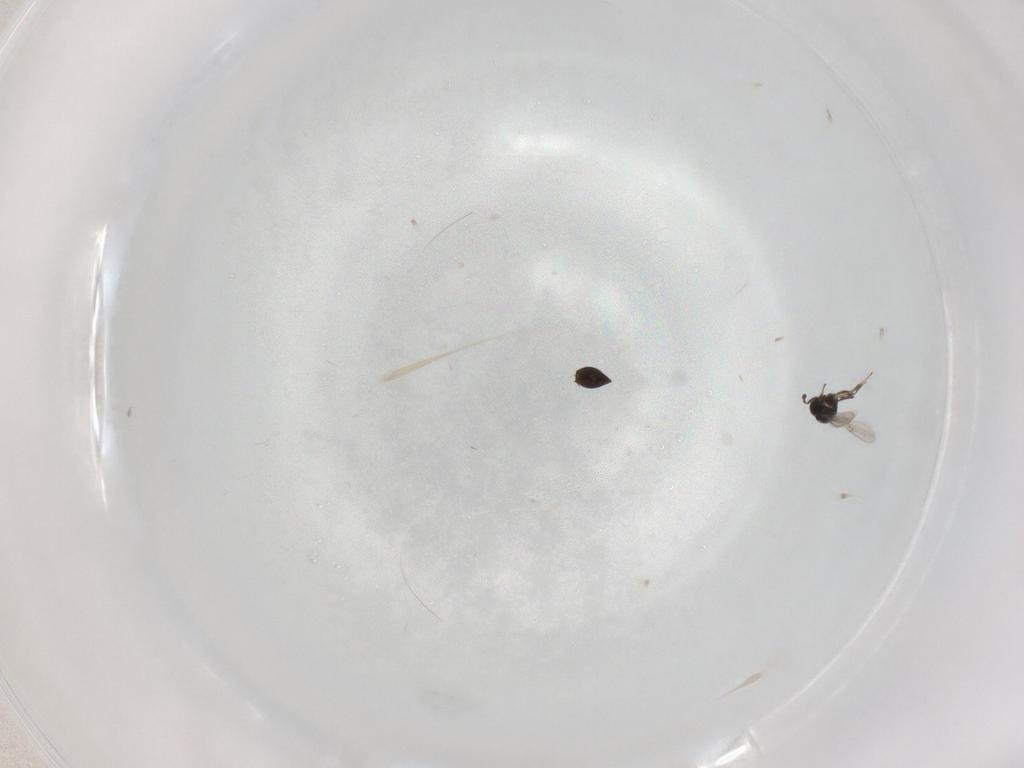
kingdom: Animalia
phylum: Arthropoda
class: Insecta
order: Hymenoptera
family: Scelionidae
